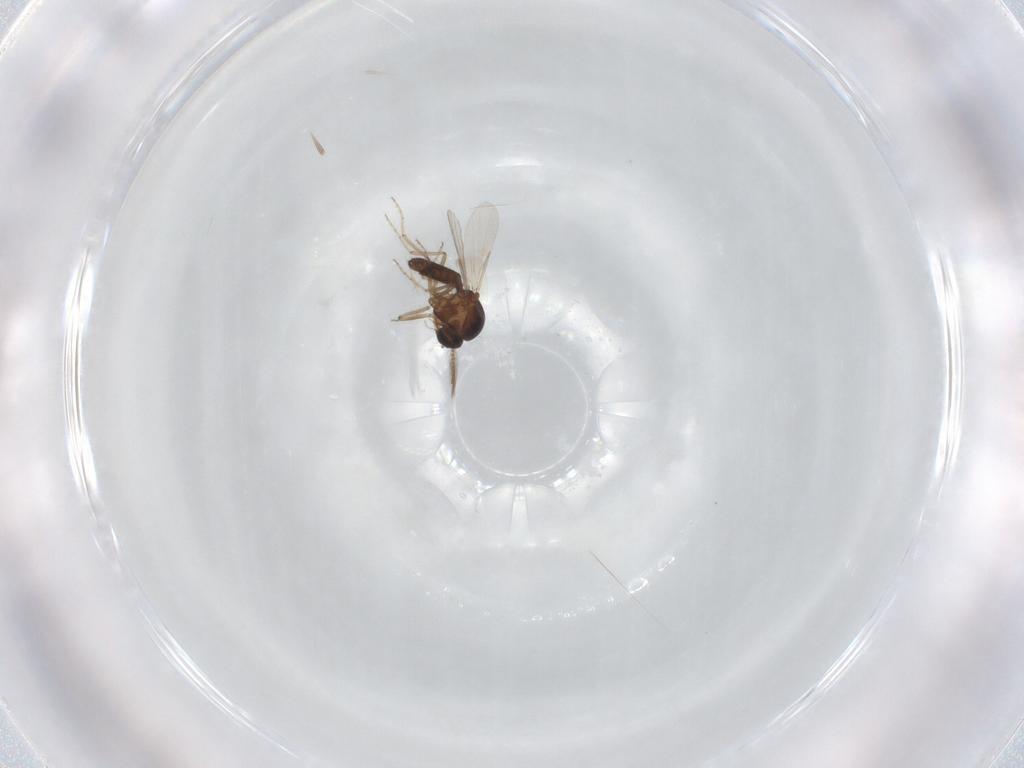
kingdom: Animalia
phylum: Arthropoda
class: Insecta
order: Diptera
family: Ceratopogonidae
